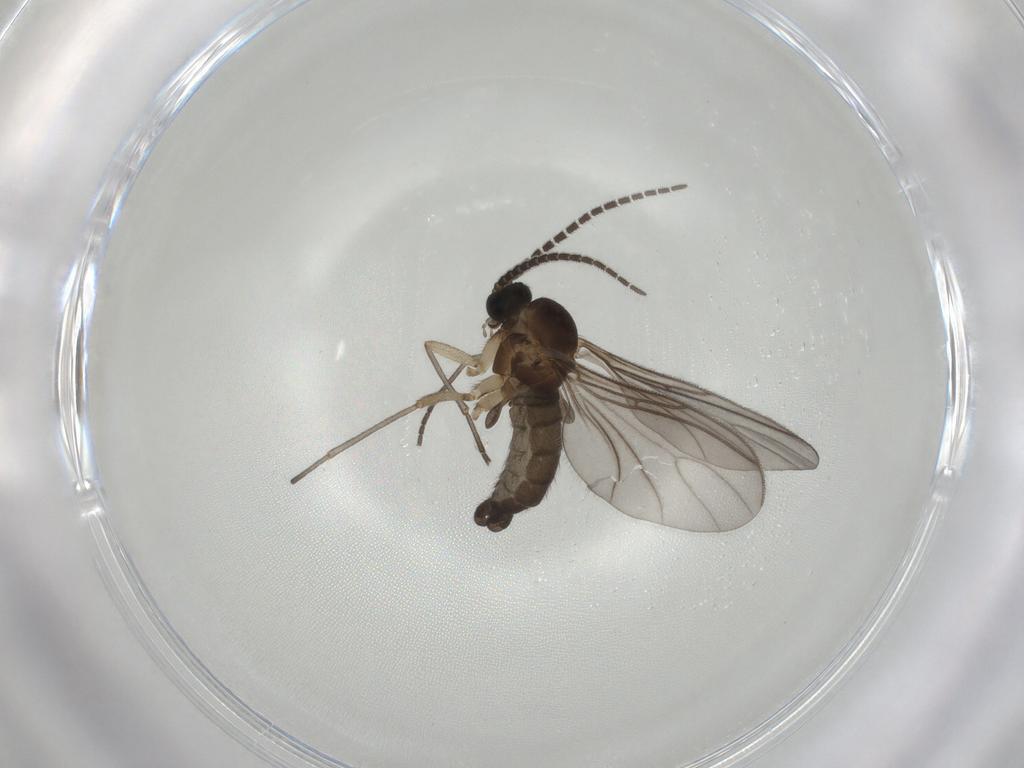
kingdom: Animalia
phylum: Arthropoda
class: Insecta
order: Diptera
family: Sciaridae
